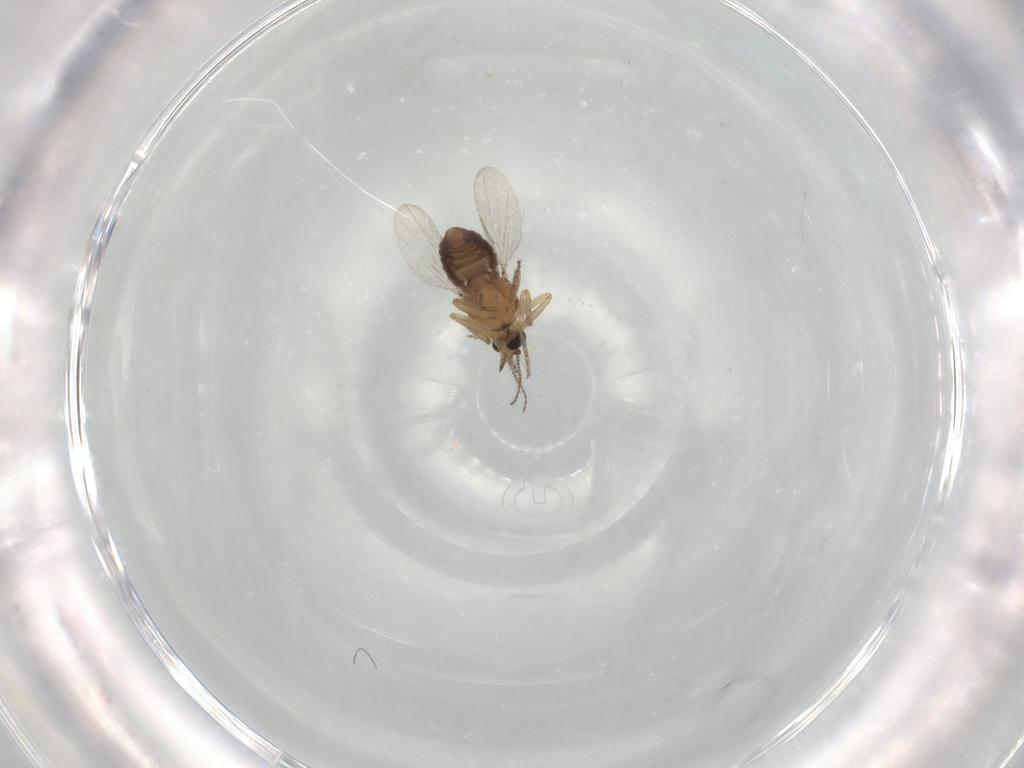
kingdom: Animalia
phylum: Arthropoda
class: Insecta
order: Diptera
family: Ceratopogonidae
